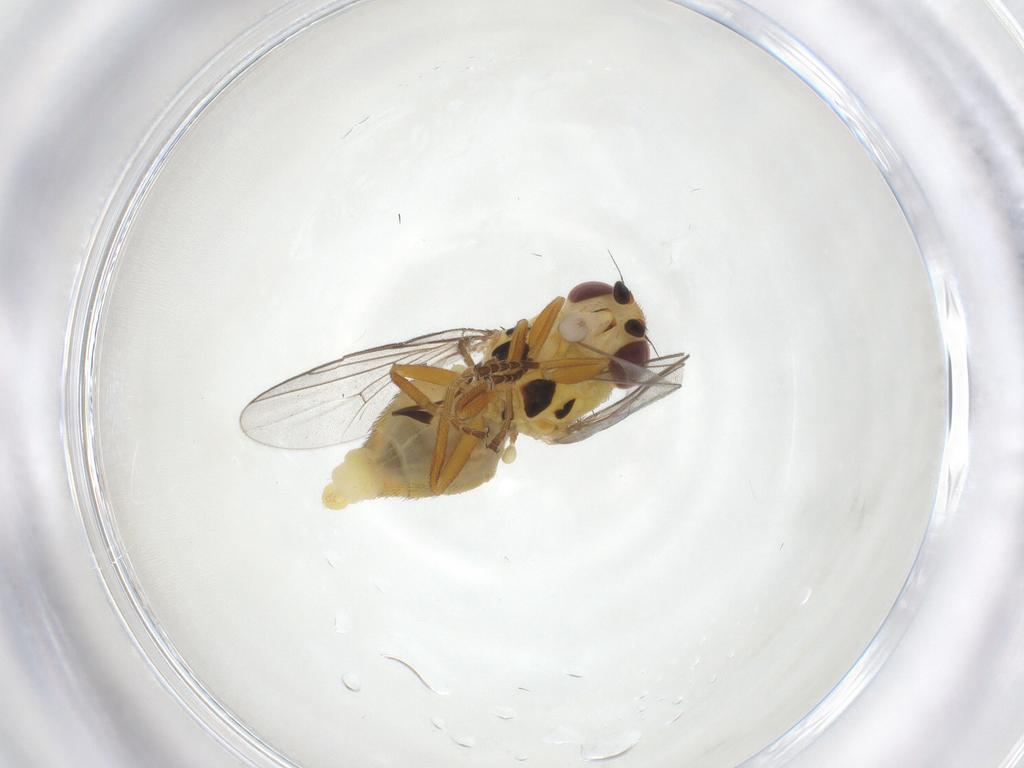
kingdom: Animalia
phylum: Arthropoda
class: Insecta
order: Diptera
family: Chloropidae
